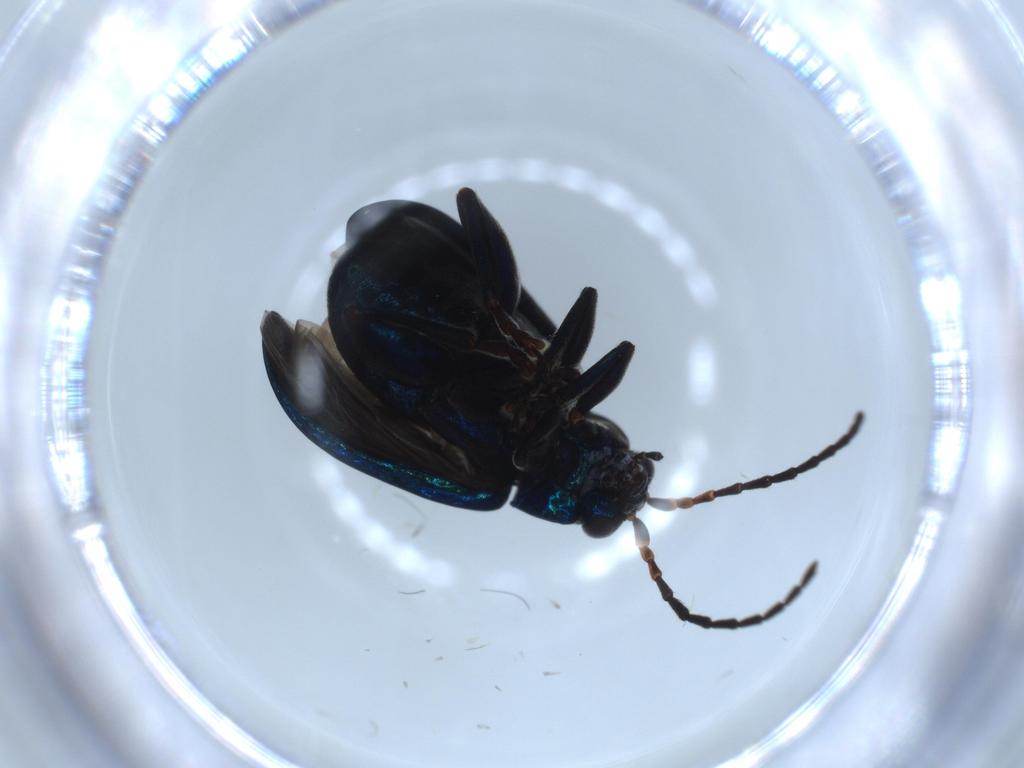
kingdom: Animalia
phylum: Arthropoda
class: Insecta
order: Coleoptera
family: Chrysomelidae
